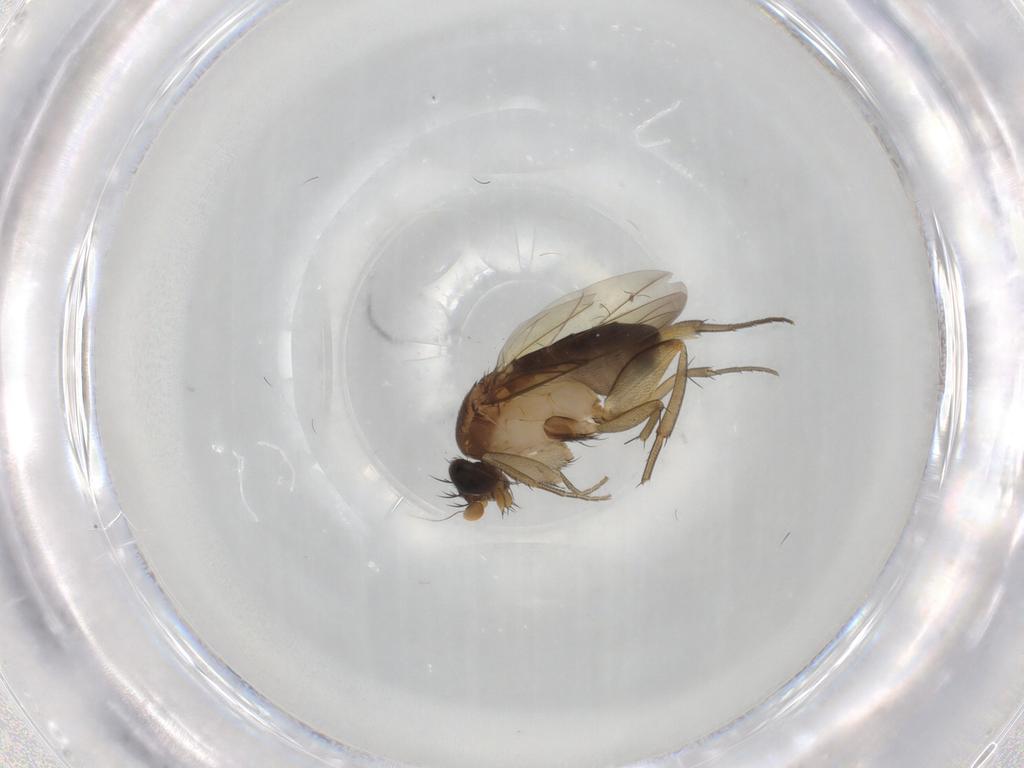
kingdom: Animalia
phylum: Arthropoda
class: Insecta
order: Diptera
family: Phoridae
